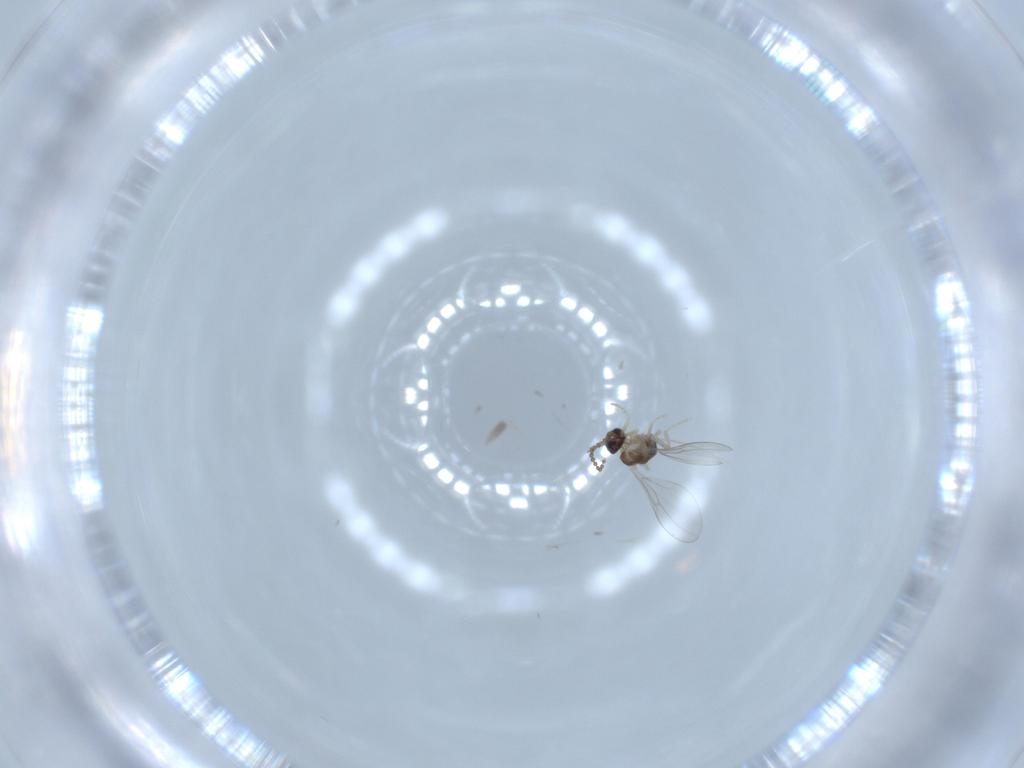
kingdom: Animalia
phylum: Arthropoda
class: Insecta
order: Diptera
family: Cecidomyiidae
